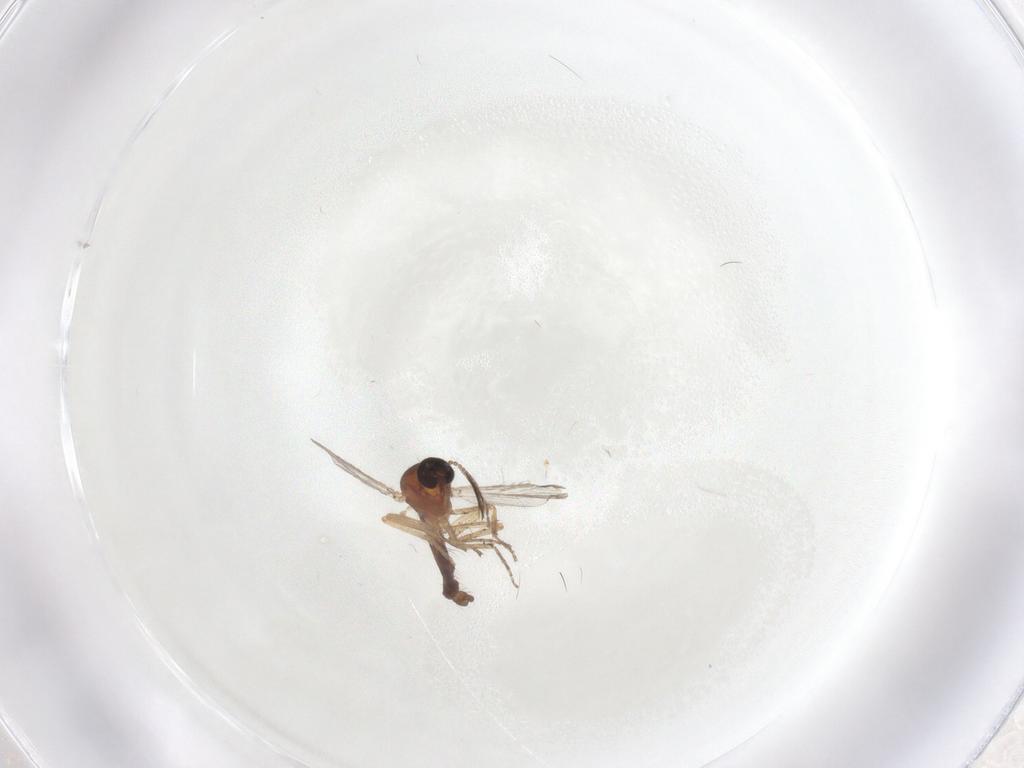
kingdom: Animalia
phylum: Arthropoda
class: Insecta
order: Diptera
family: Ceratopogonidae
